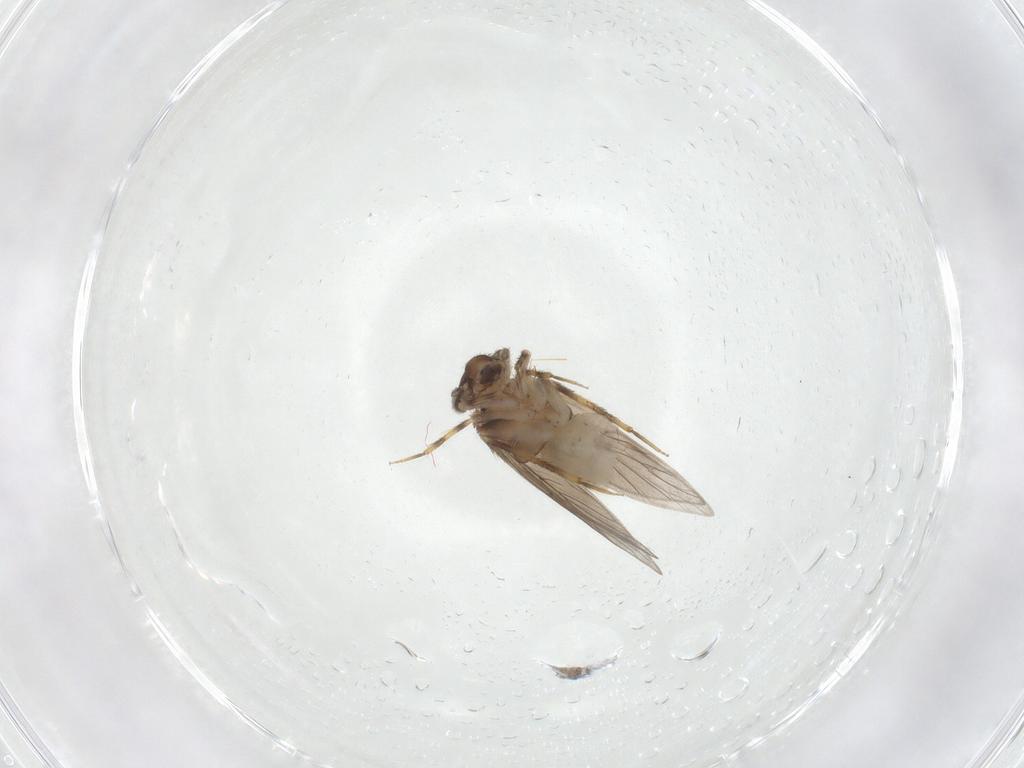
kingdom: Animalia
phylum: Arthropoda
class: Insecta
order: Psocodea
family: Lepidopsocidae
